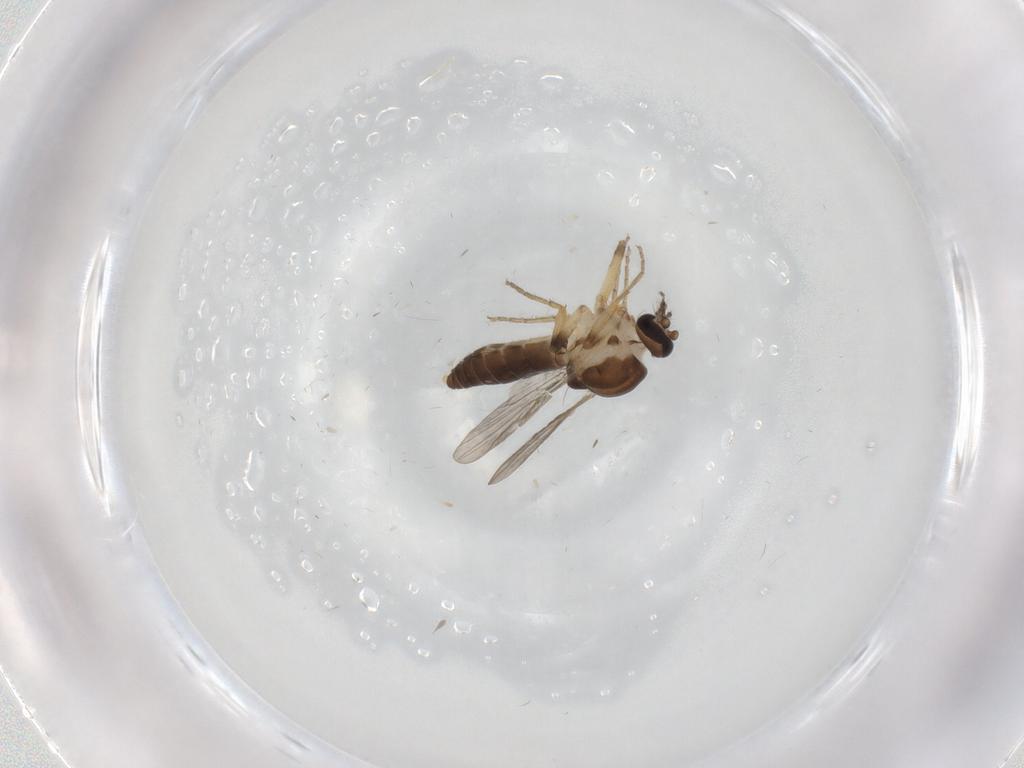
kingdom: Animalia
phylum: Arthropoda
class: Insecta
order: Diptera
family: Ceratopogonidae
